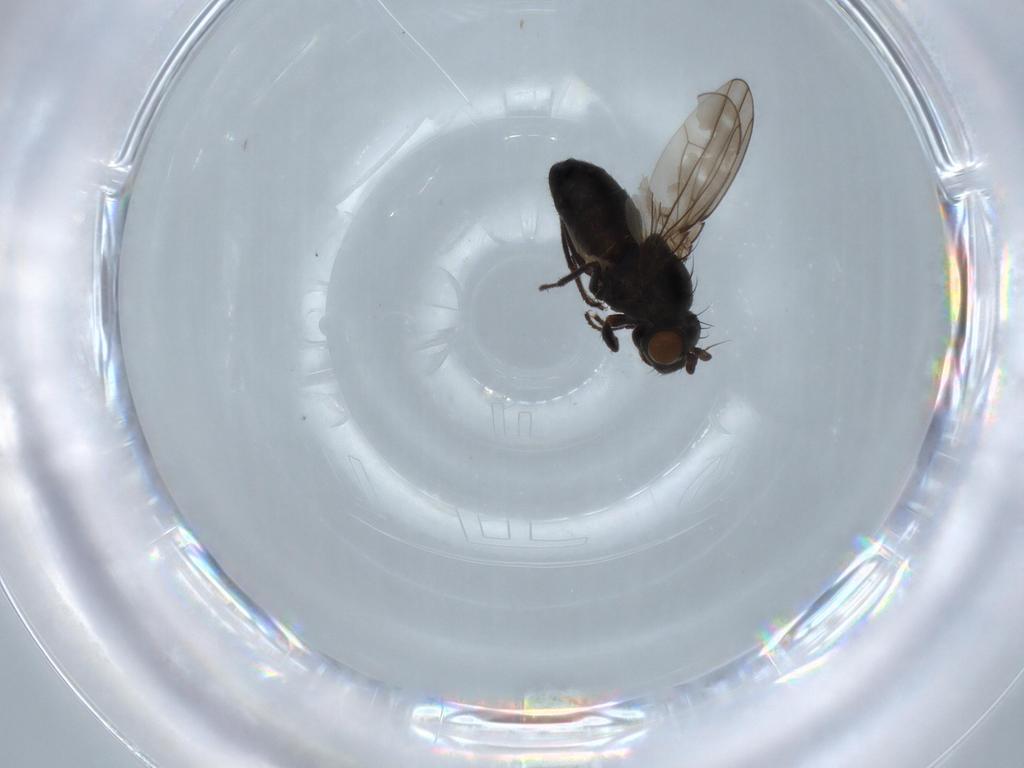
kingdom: Animalia
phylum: Arthropoda
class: Insecta
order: Diptera
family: Ephydridae
